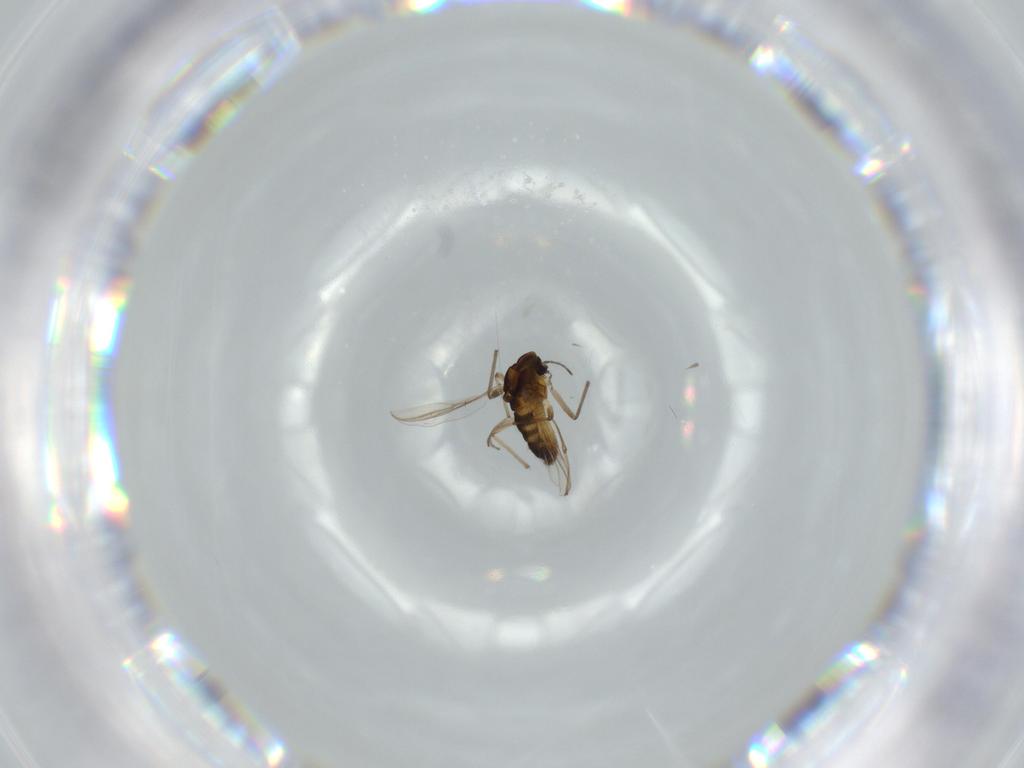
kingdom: Animalia
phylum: Arthropoda
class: Insecta
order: Diptera
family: Chironomidae
